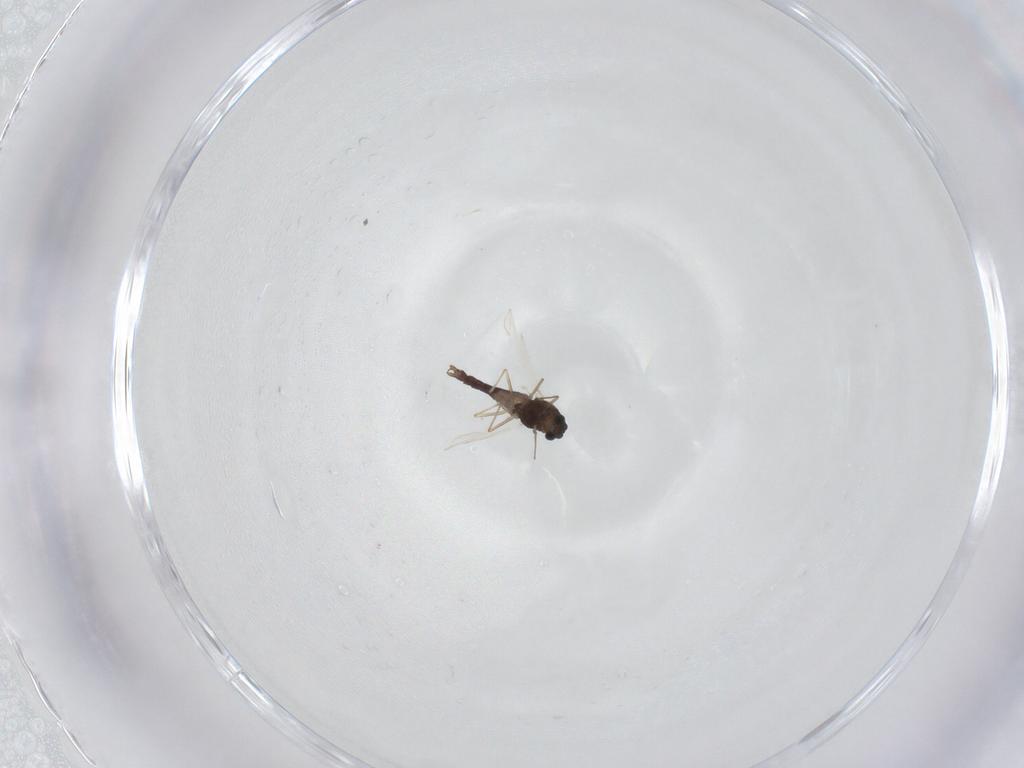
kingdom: Animalia
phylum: Arthropoda
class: Insecta
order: Diptera
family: Chironomidae
